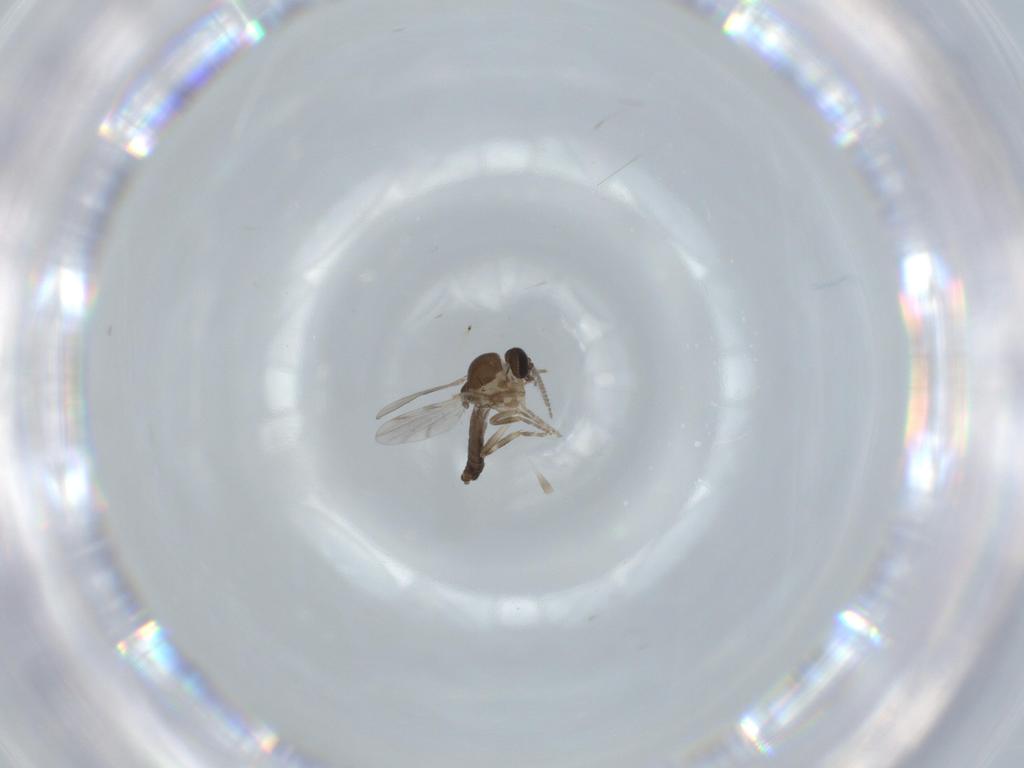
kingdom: Animalia
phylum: Arthropoda
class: Insecta
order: Diptera
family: Ceratopogonidae
